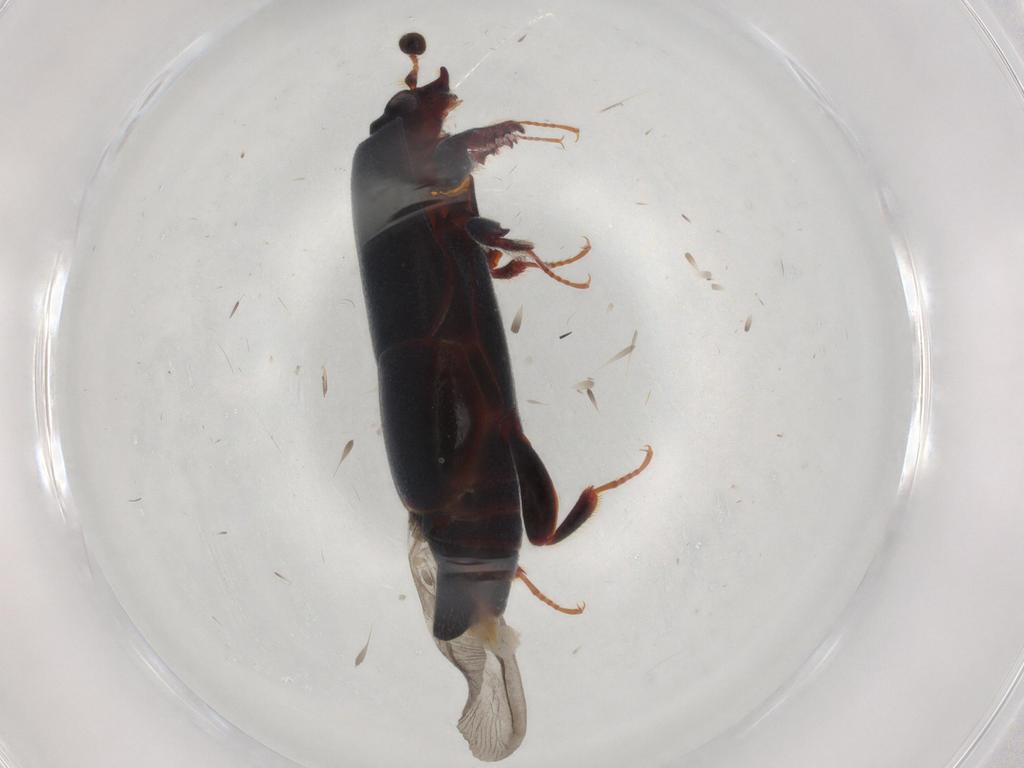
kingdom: Animalia
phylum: Arthropoda
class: Insecta
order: Coleoptera
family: Histeridae
